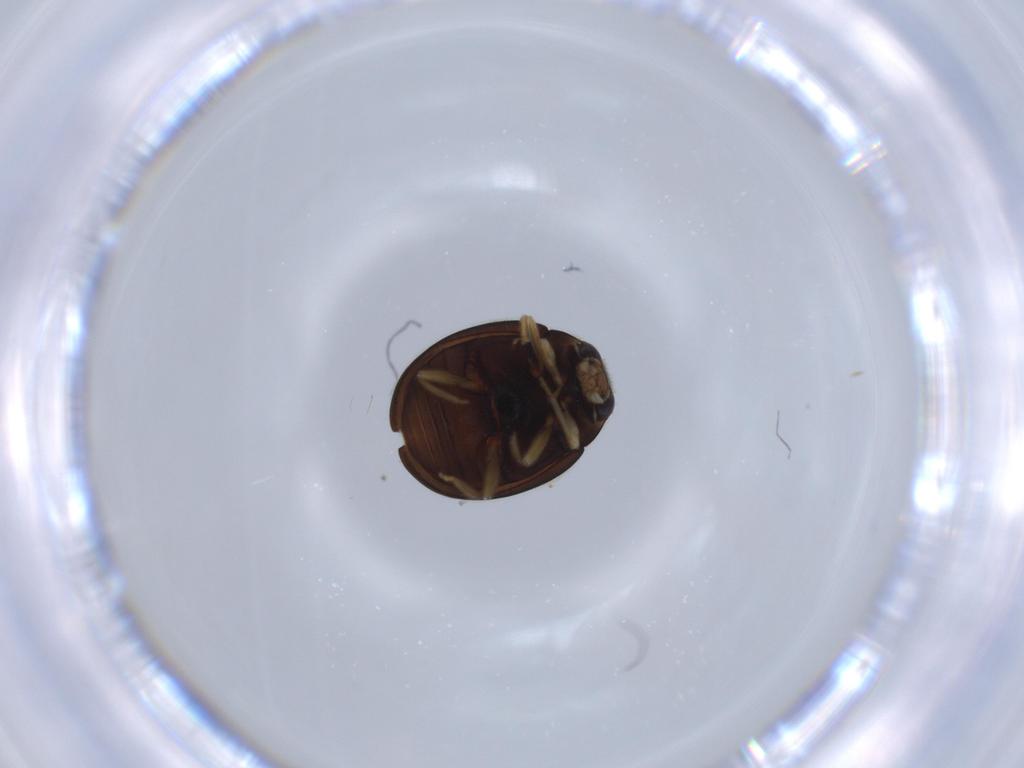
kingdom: Animalia
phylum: Arthropoda
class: Insecta
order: Coleoptera
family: Coccinellidae
